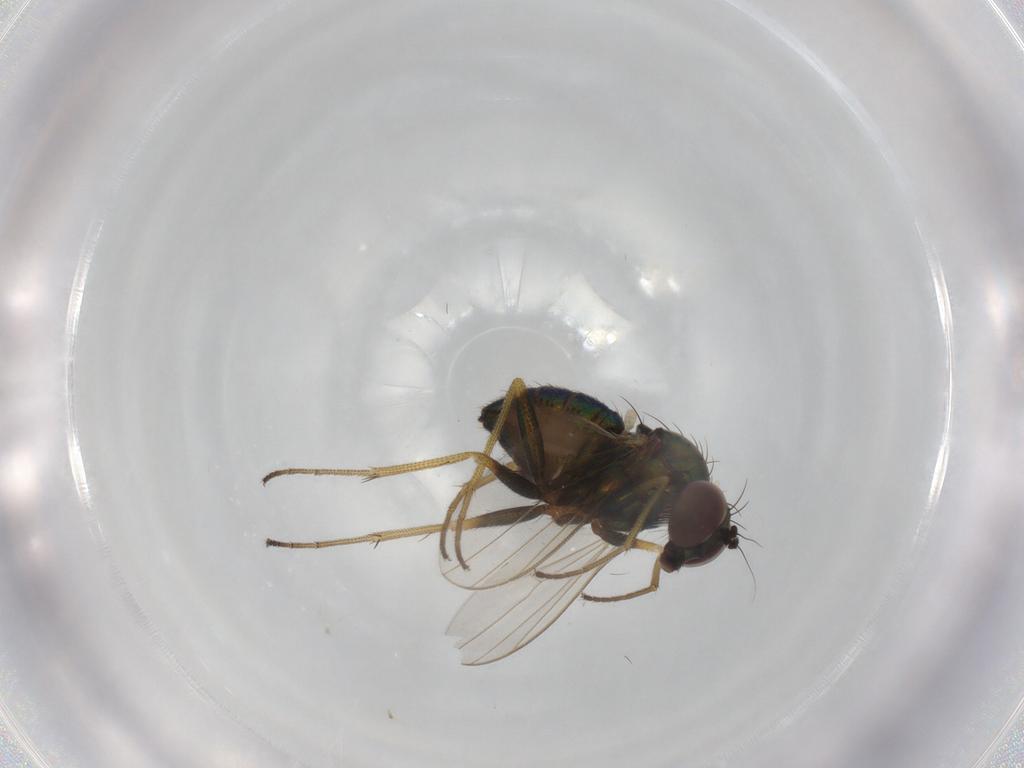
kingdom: Animalia
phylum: Arthropoda
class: Insecta
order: Diptera
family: Dolichopodidae
